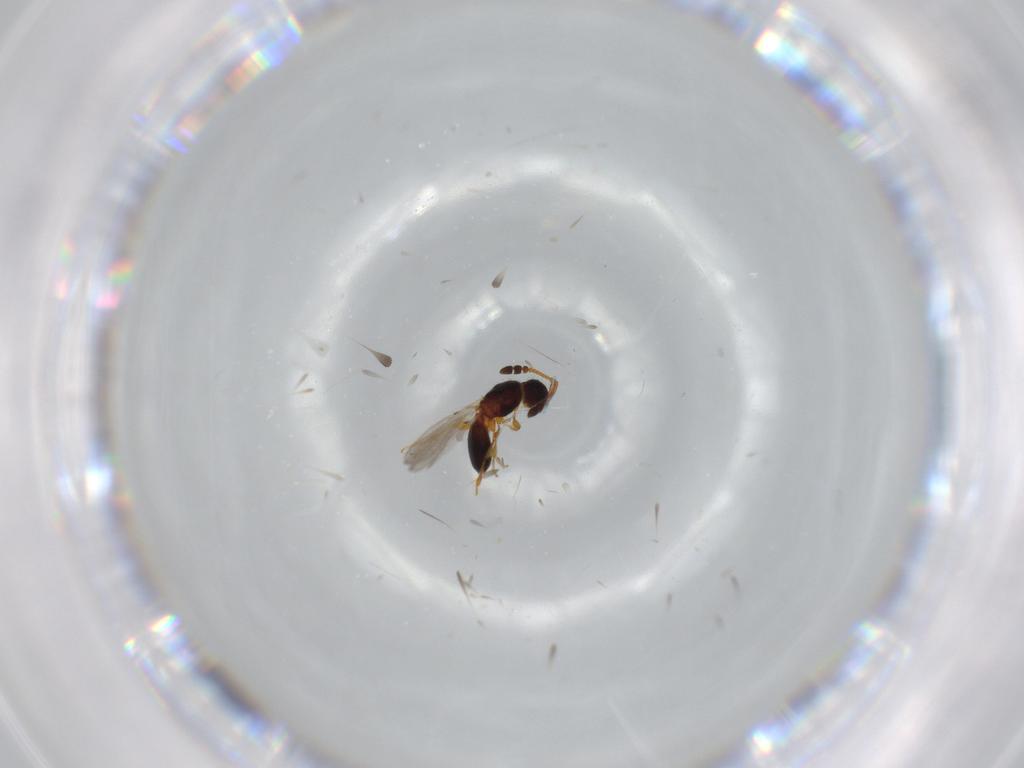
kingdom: Animalia
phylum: Arthropoda
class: Insecta
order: Hymenoptera
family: Diapriidae
